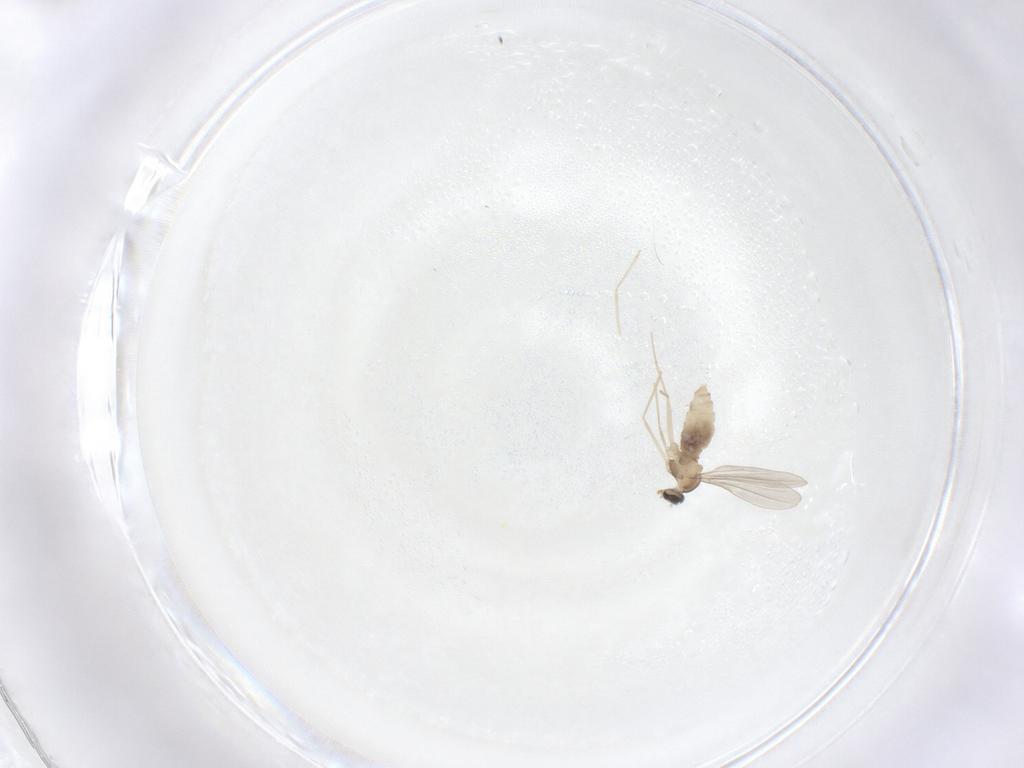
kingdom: Animalia
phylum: Arthropoda
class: Insecta
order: Diptera
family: Cecidomyiidae
